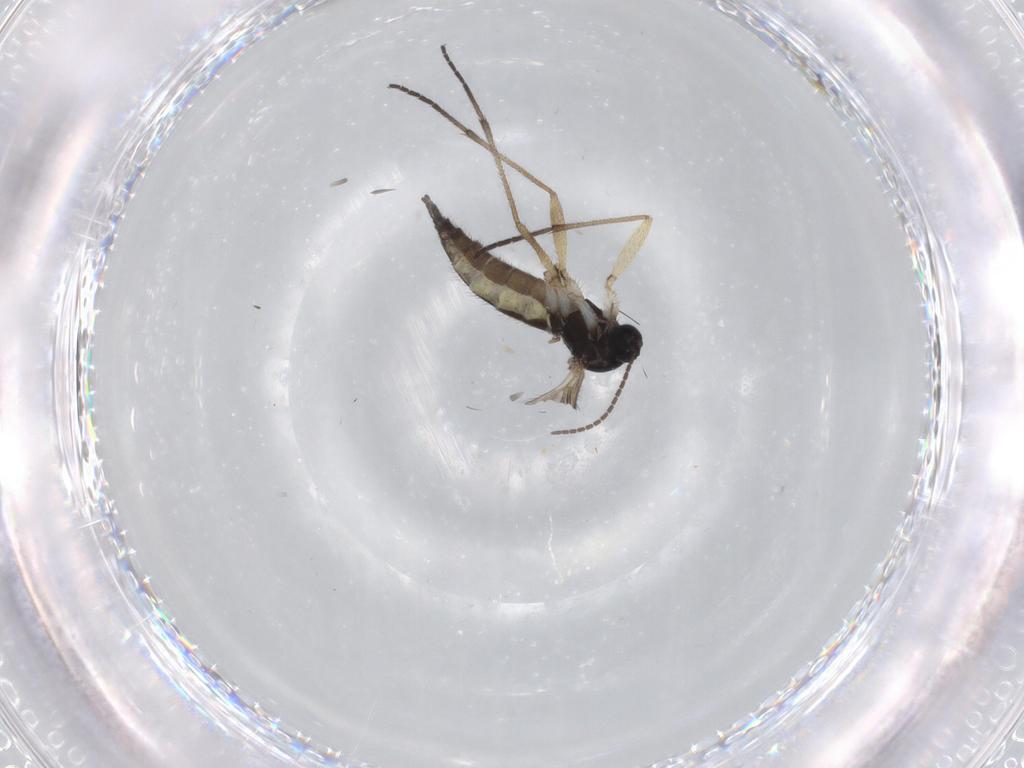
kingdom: Animalia
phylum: Arthropoda
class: Insecta
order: Diptera
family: Sciaridae
